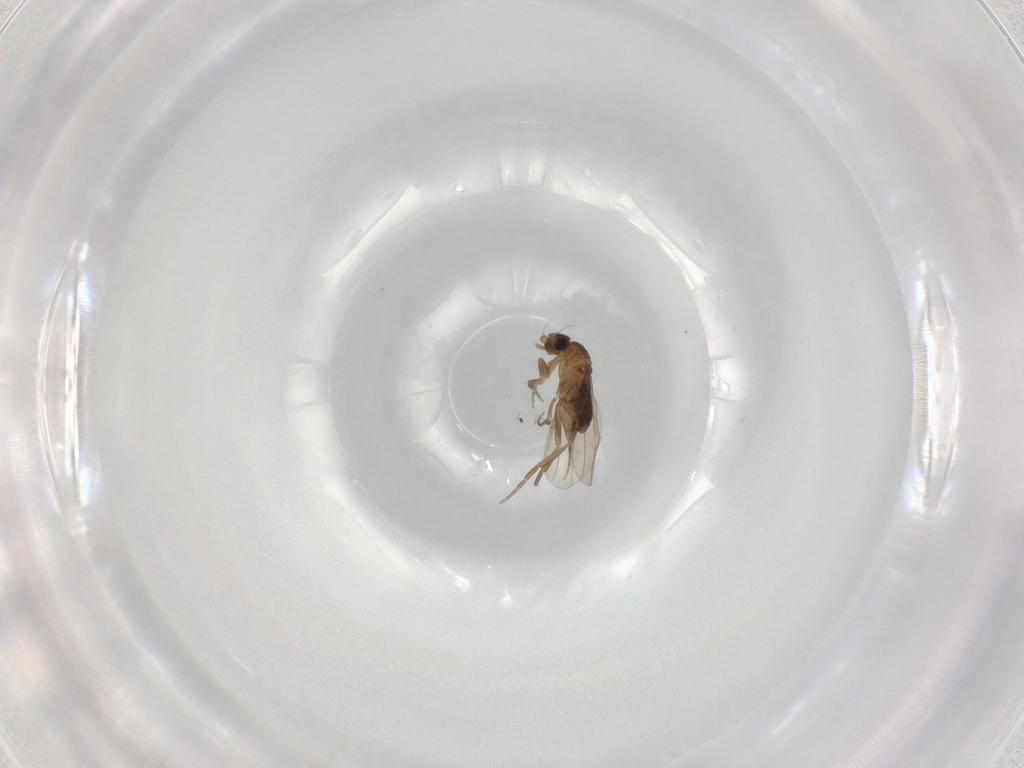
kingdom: Animalia
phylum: Arthropoda
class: Insecta
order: Diptera
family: Phoridae
